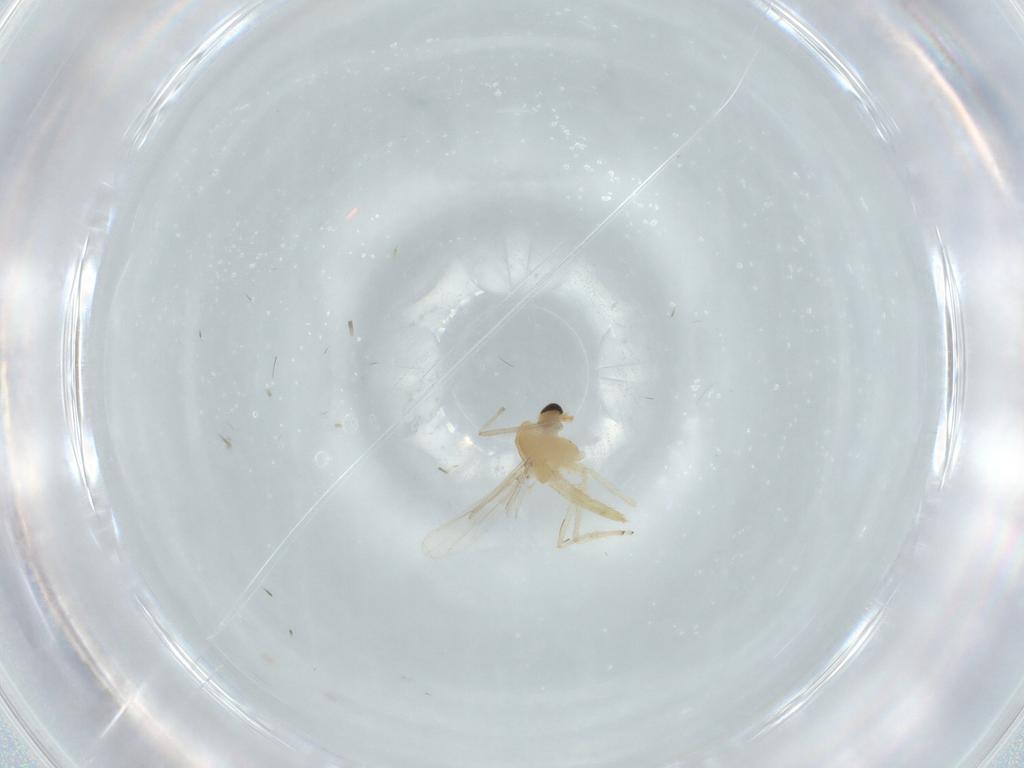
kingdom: Animalia
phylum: Arthropoda
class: Insecta
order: Diptera
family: Chironomidae
